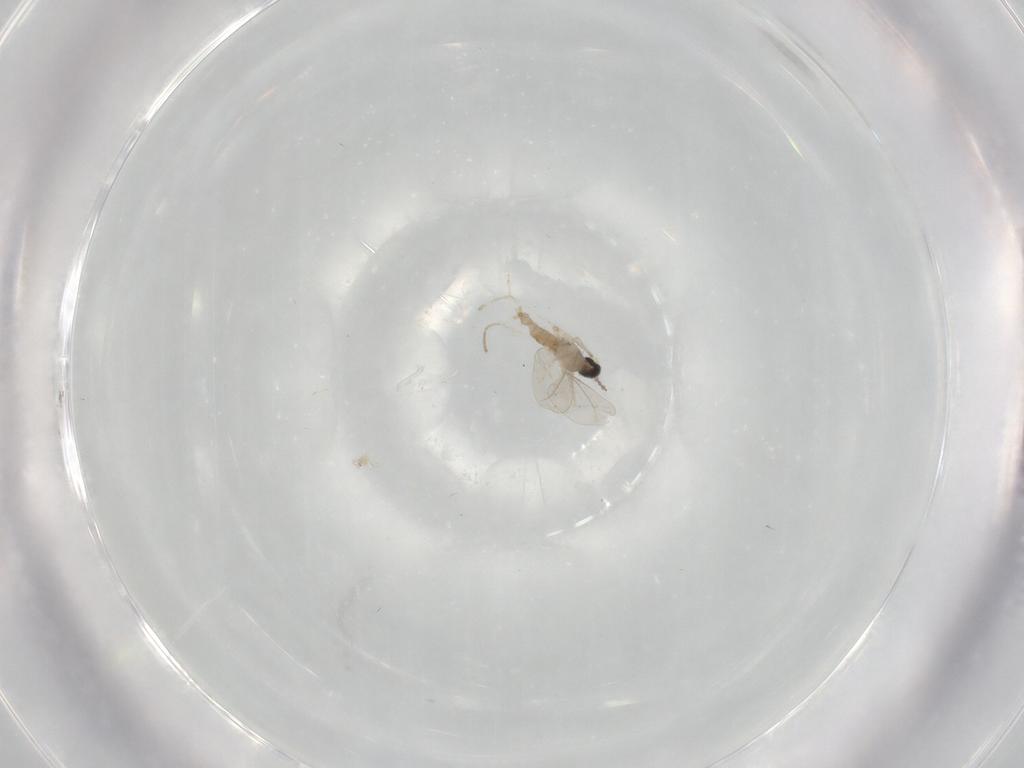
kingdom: Animalia
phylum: Arthropoda
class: Insecta
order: Diptera
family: Cecidomyiidae
